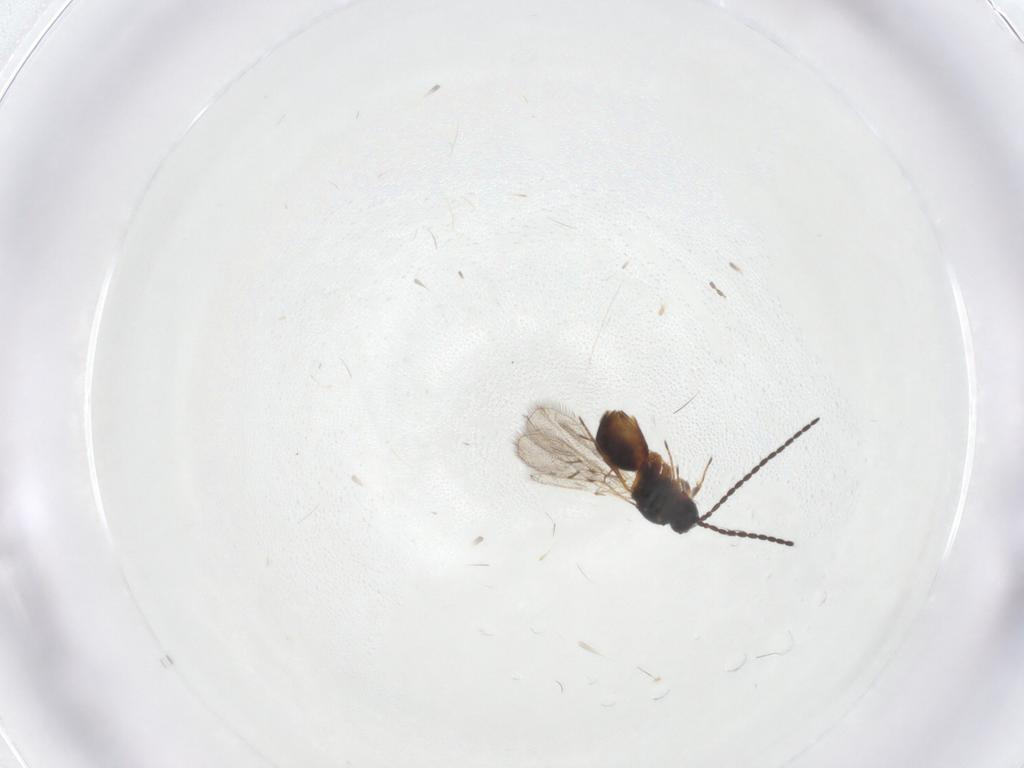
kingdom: Animalia
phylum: Arthropoda
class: Insecta
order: Hymenoptera
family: Figitidae
